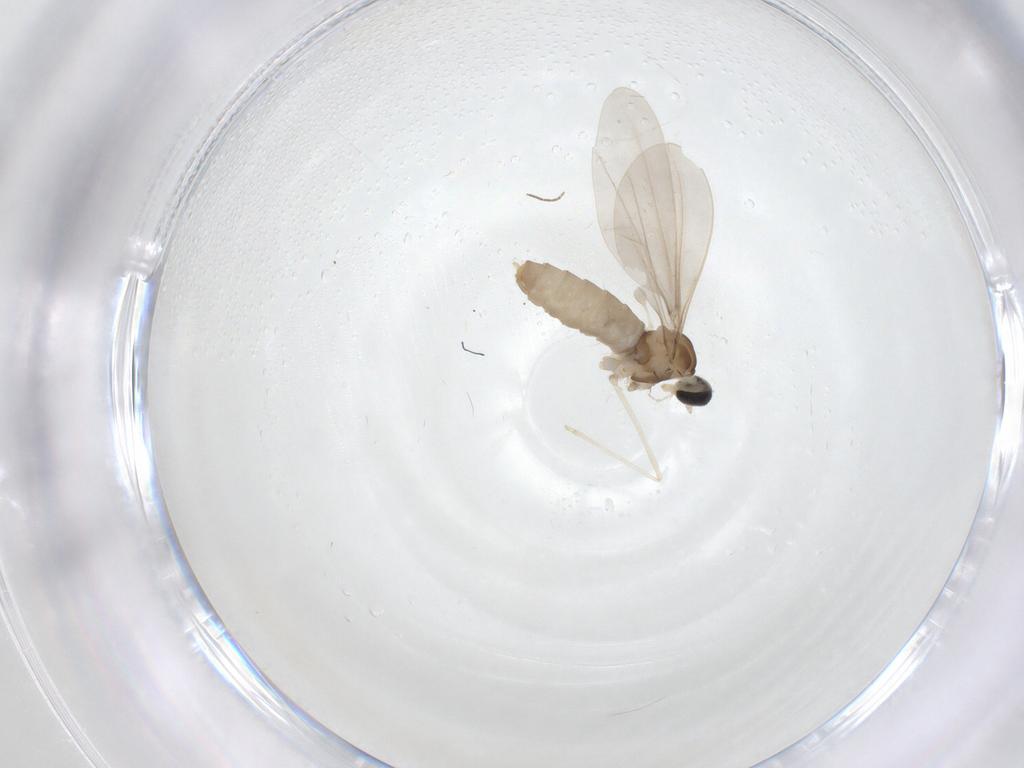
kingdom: Animalia
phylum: Arthropoda
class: Insecta
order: Diptera
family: Cecidomyiidae
